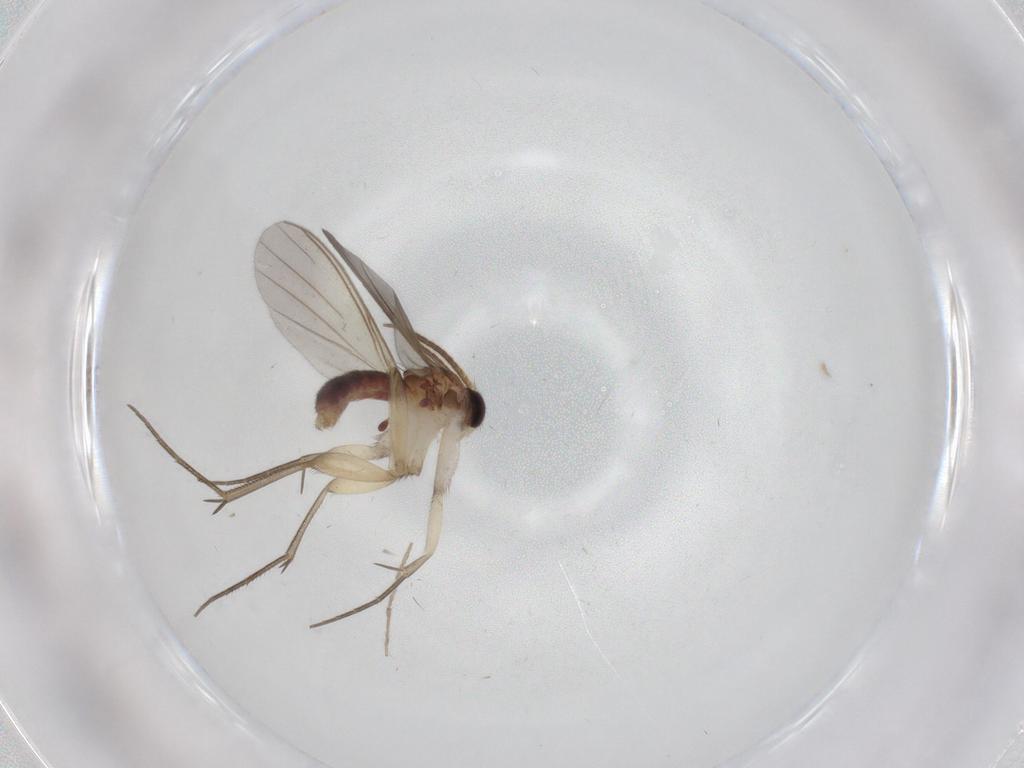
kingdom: Animalia
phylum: Arthropoda
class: Insecta
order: Diptera
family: Mycetophilidae
